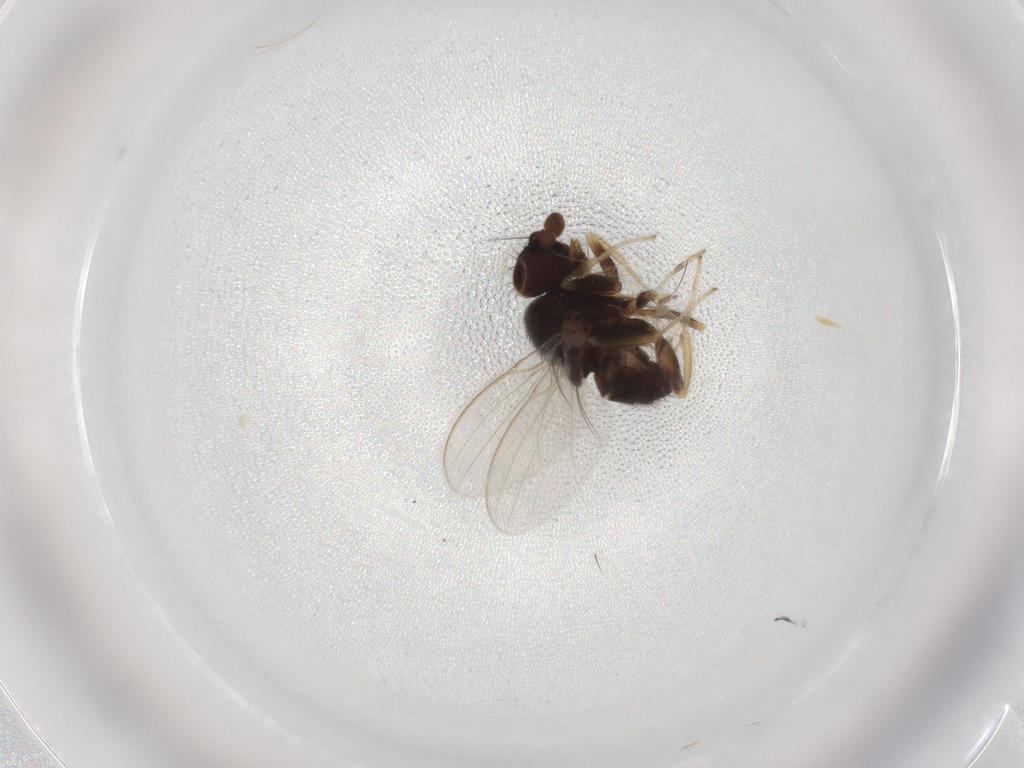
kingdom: Animalia
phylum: Arthropoda
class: Insecta
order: Diptera
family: Milichiidae
